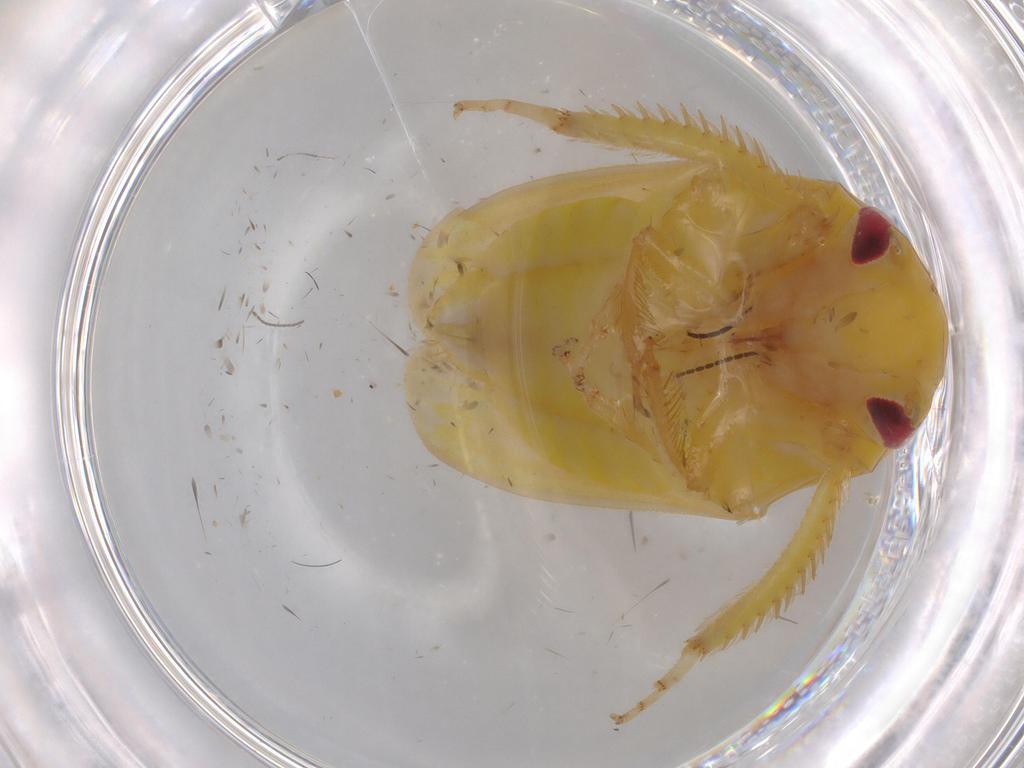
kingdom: Animalia
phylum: Arthropoda
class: Insecta
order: Hemiptera
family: Cicadellidae
